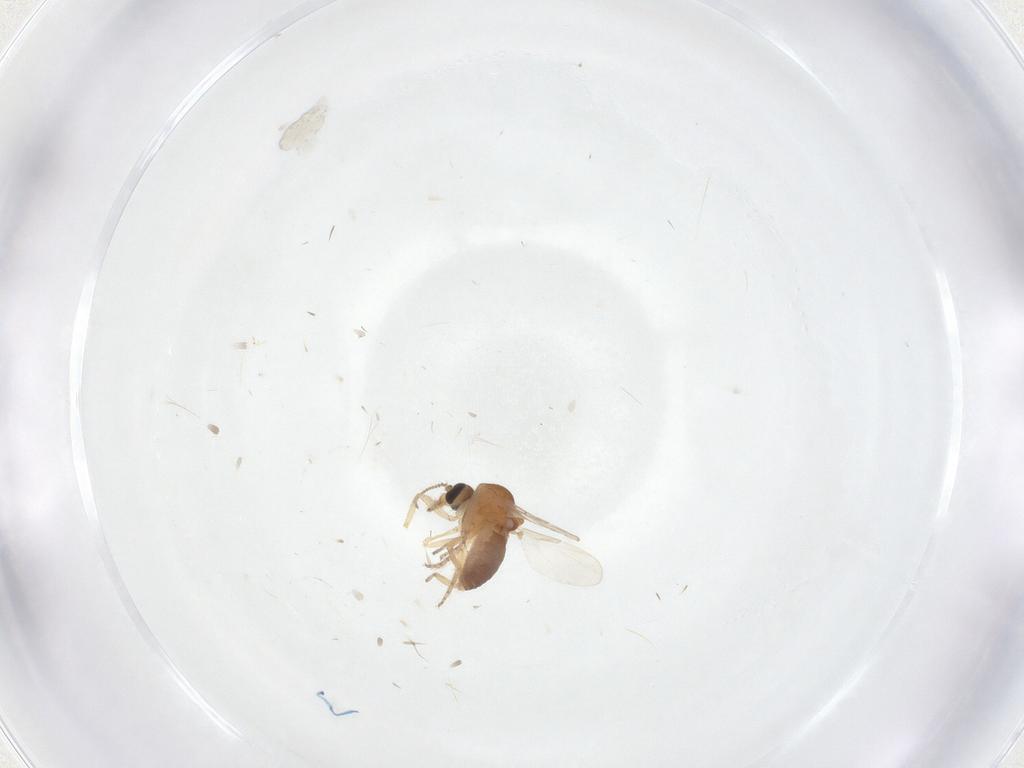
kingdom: Animalia
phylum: Arthropoda
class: Insecta
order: Diptera
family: Ceratopogonidae
